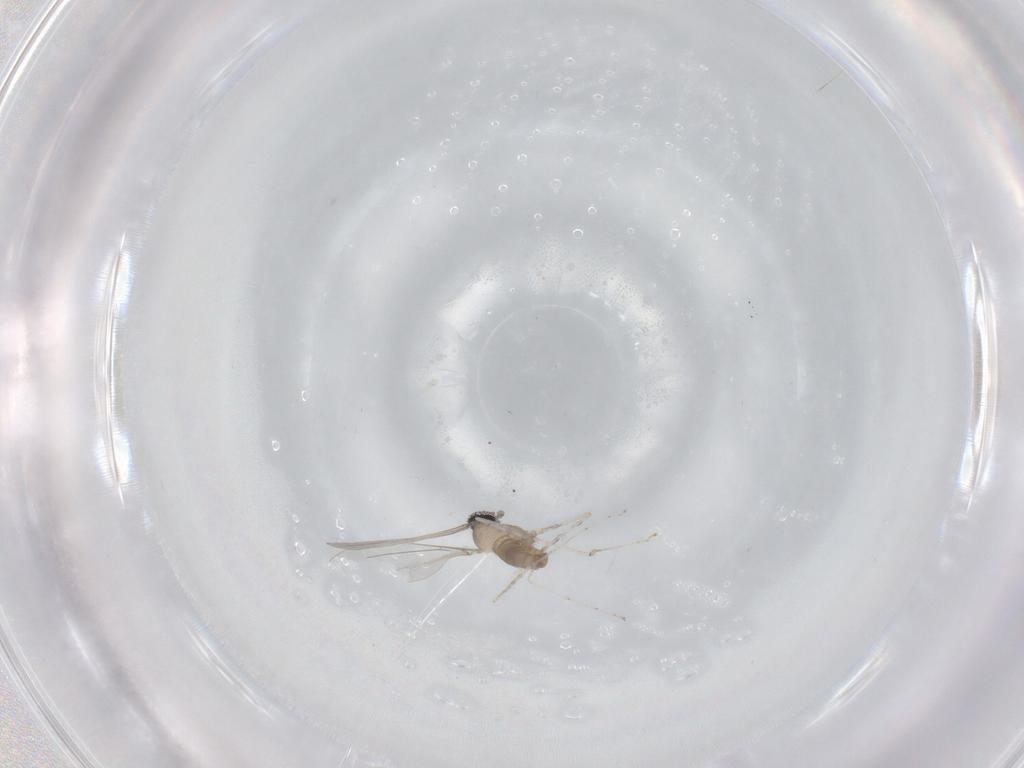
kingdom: Animalia
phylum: Arthropoda
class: Insecta
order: Diptera
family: Cecidomyiidae
